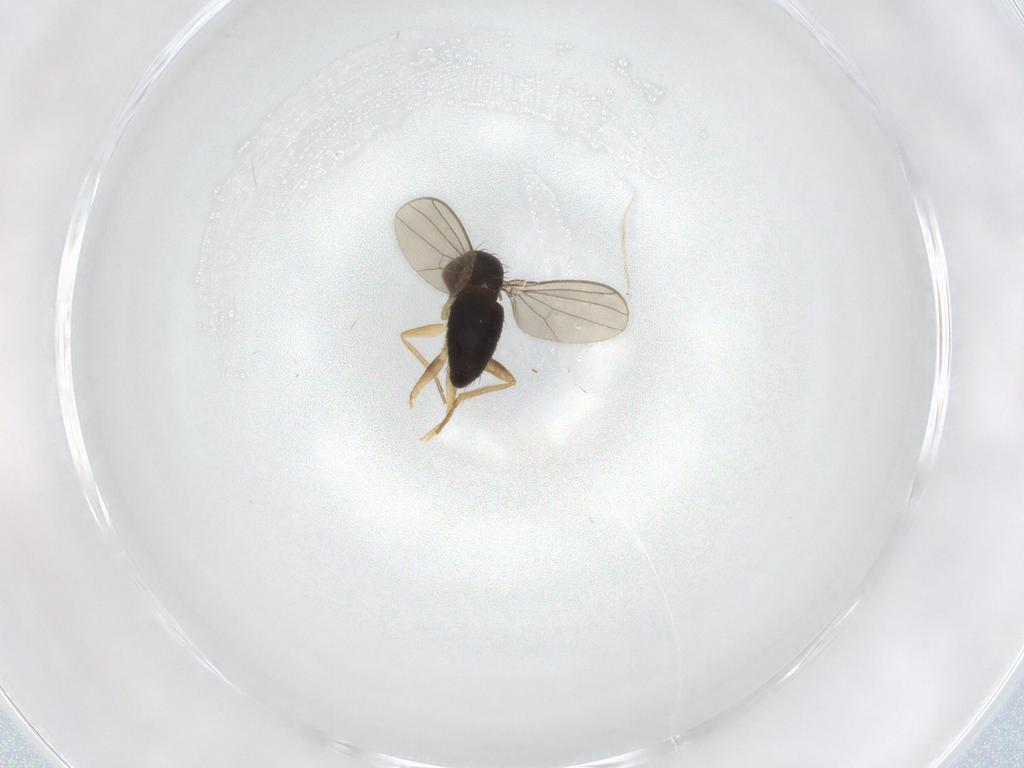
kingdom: Animalia
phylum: Arthropoda
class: Insecta
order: Diptera
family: Dolichopodidae
